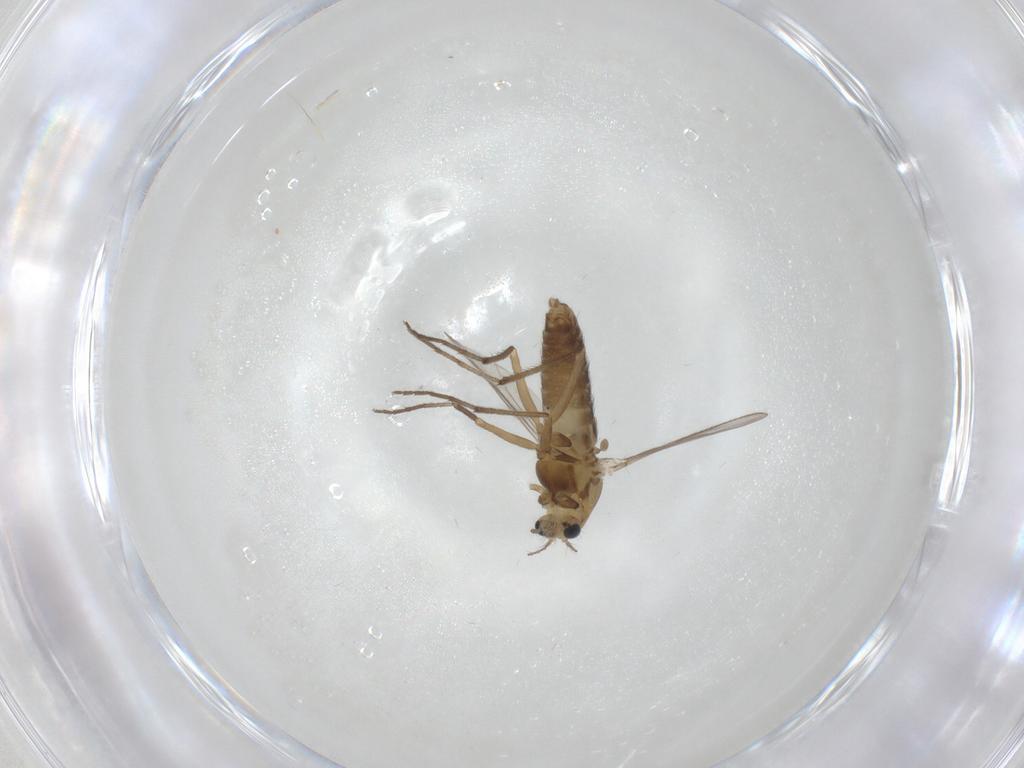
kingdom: Animalia
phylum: Arthropoda
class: Insecta
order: Diptera
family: Chironomidae
